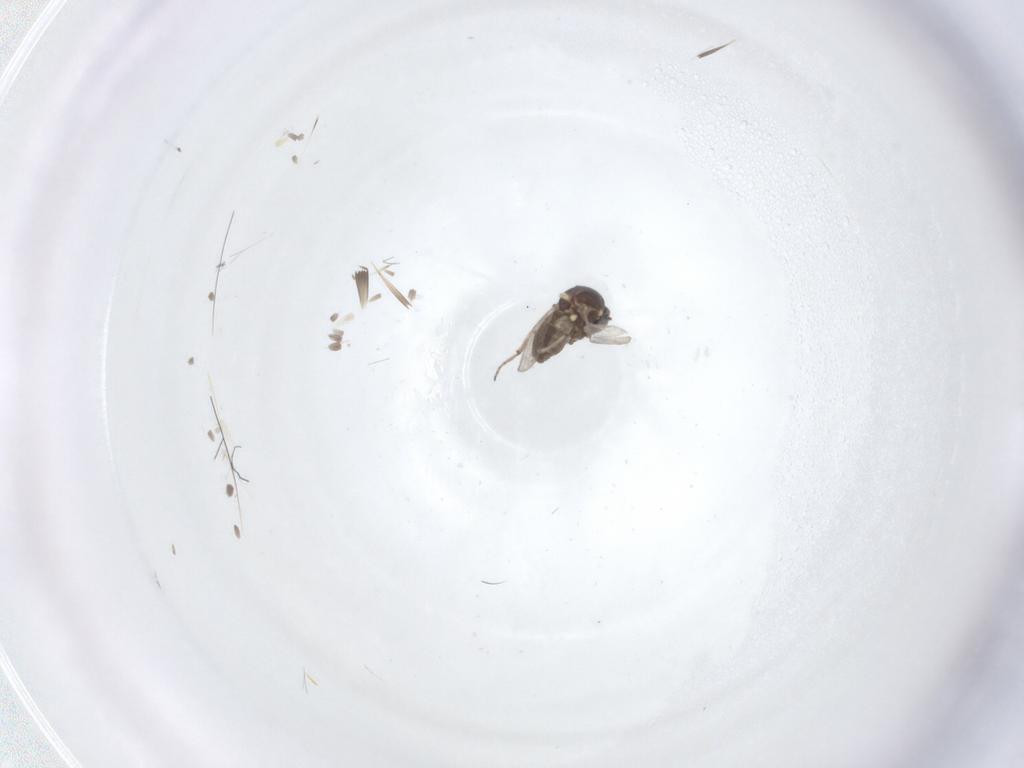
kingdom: Animalia
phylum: Arthropoda
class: Insecta
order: Diptera
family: Ceratopogonidae
